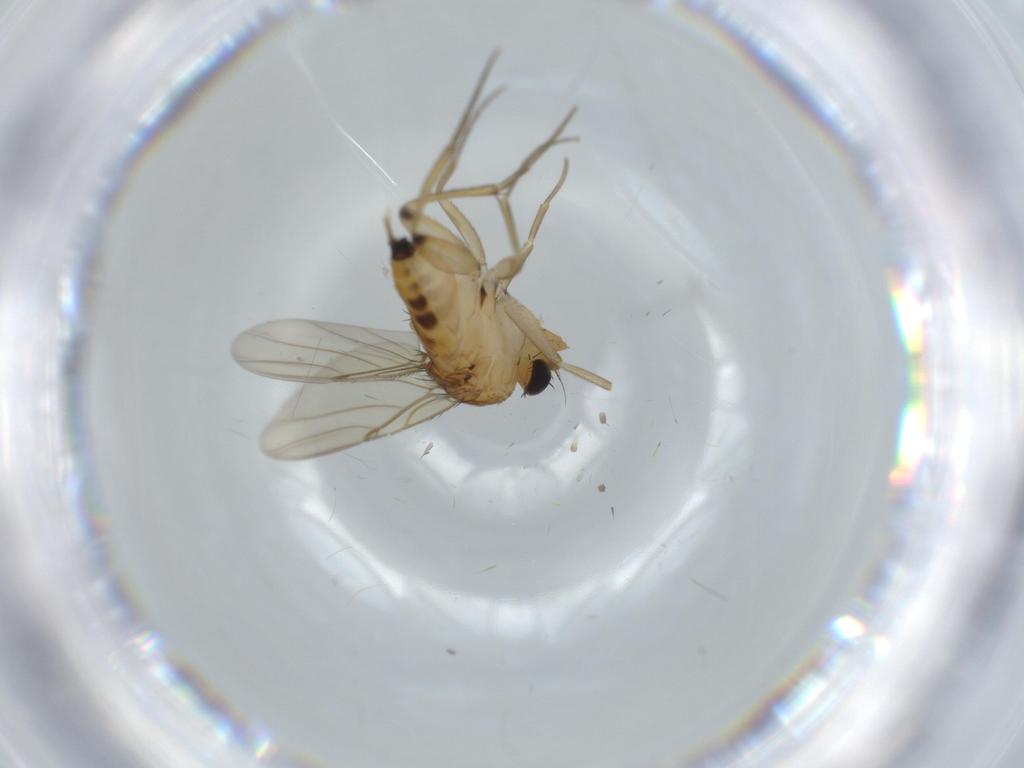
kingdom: Animalia
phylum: Arthropoda
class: Insecta
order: Diptera
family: Phoridae
